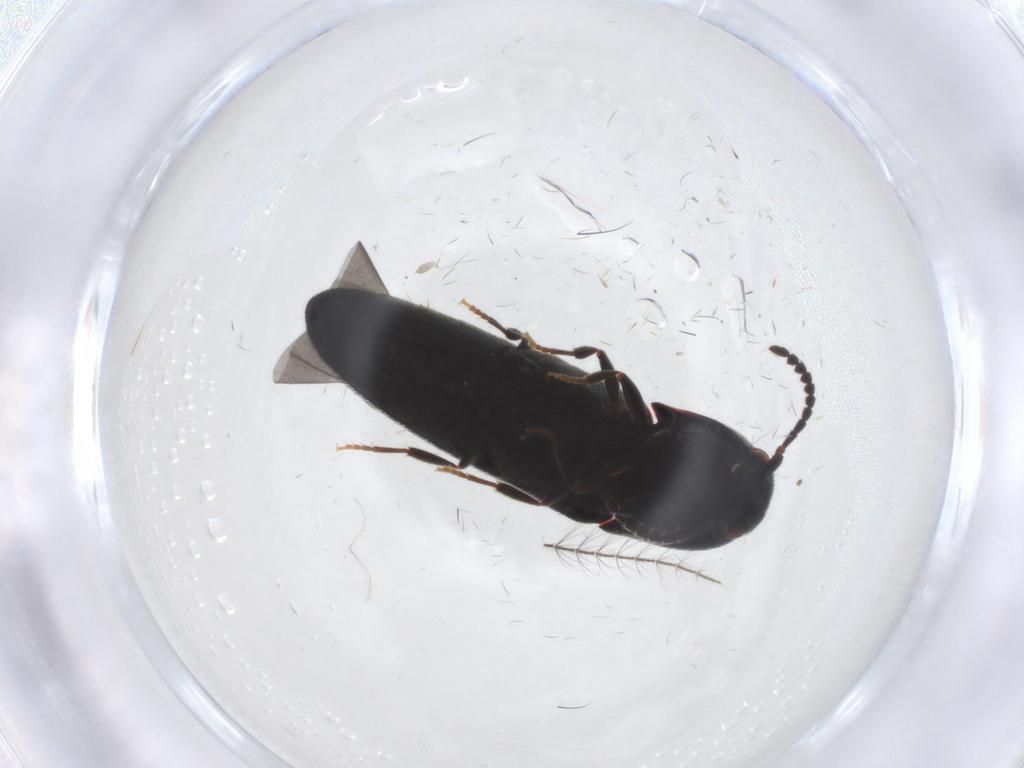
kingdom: Animalia
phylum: Arthropoda
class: Insecta
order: Coleoptera
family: Eucnemidae
